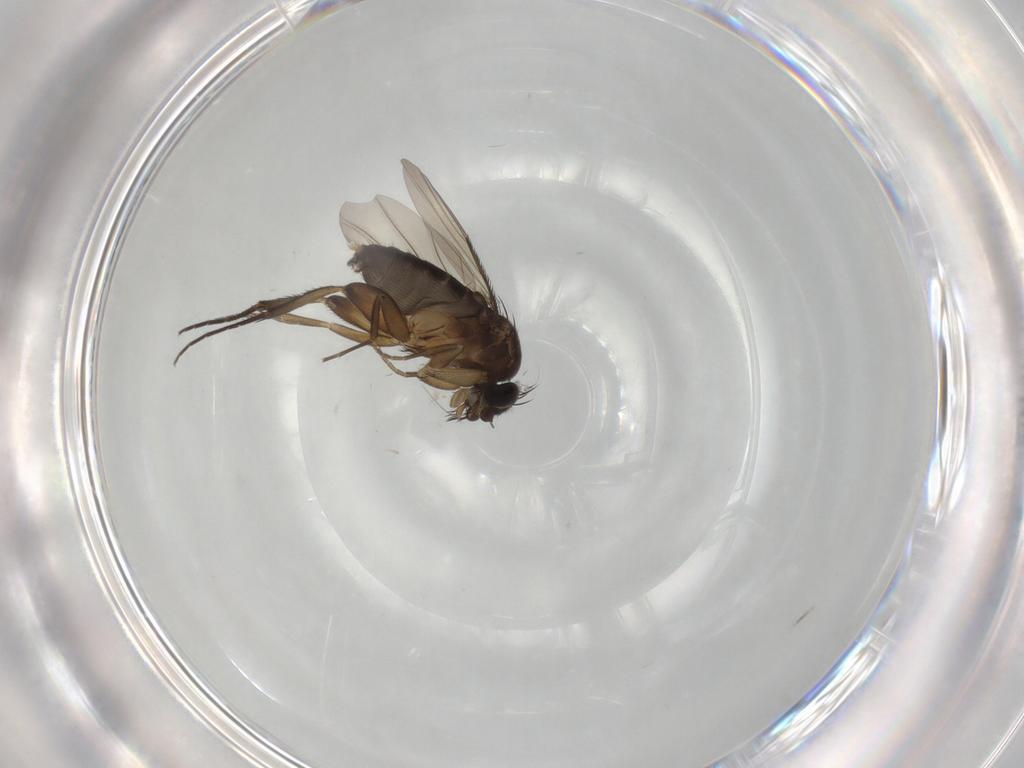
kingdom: Animalia
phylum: Arthropoda
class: Insecta
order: Diptera
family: Phoridae
